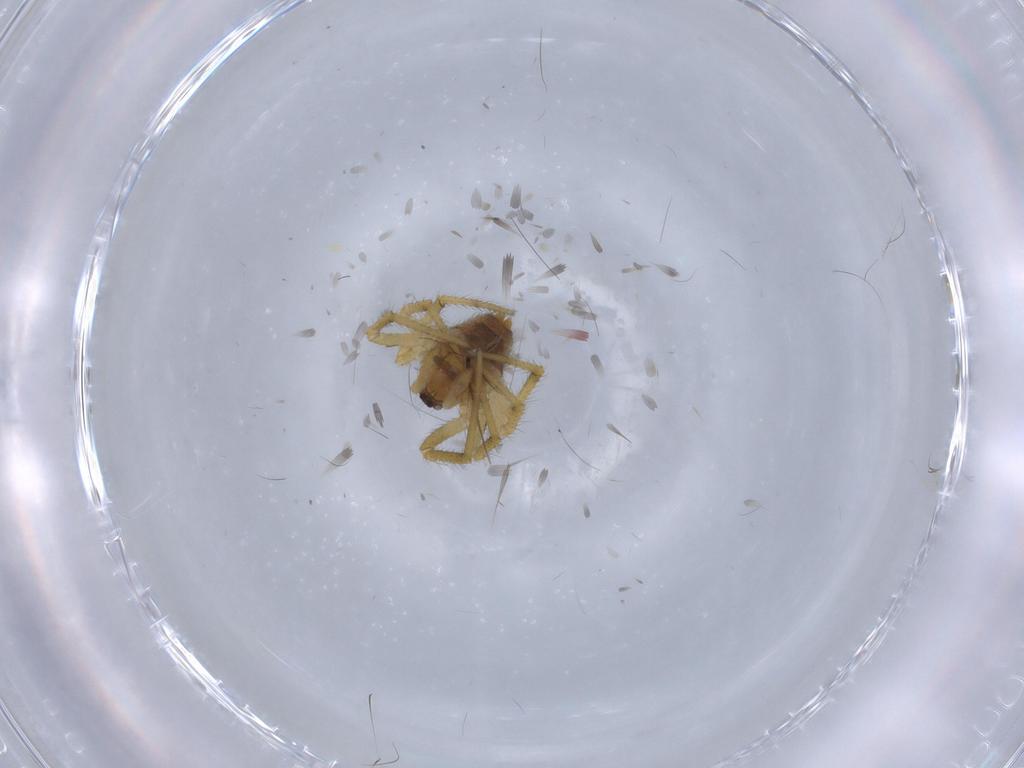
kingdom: Animalia
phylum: Arthropoda
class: Arachnida
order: Araneae
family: Theridiidae
